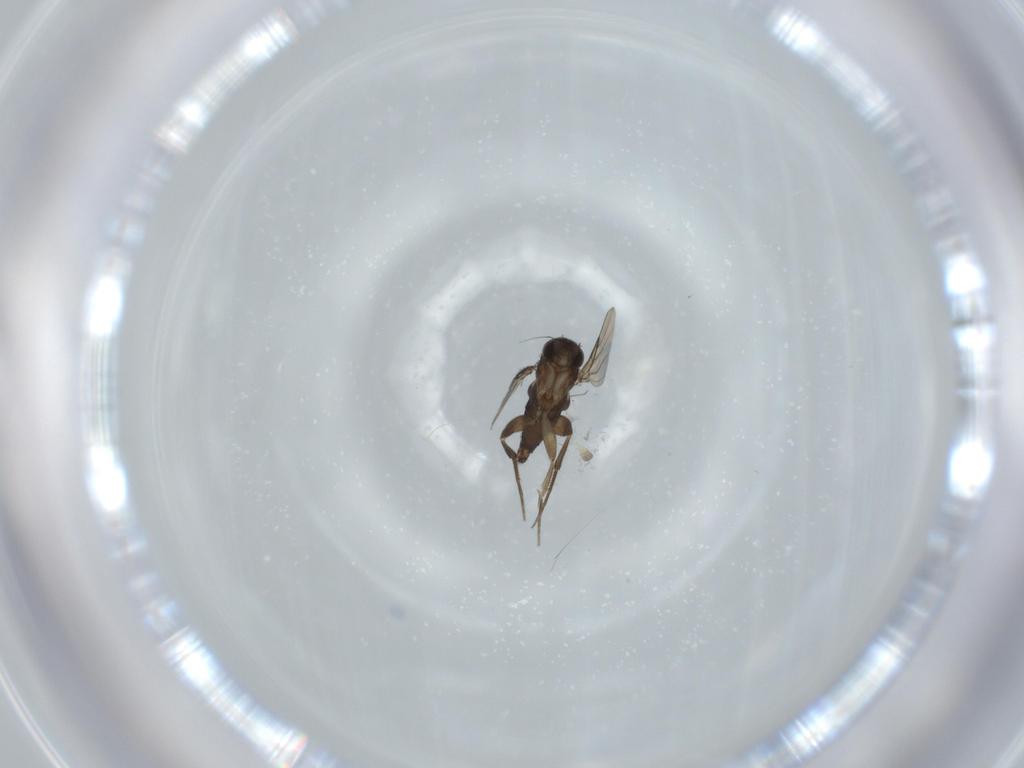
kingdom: Animalia
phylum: Arthropoda
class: Insecta
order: Diptera
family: Phoridae
